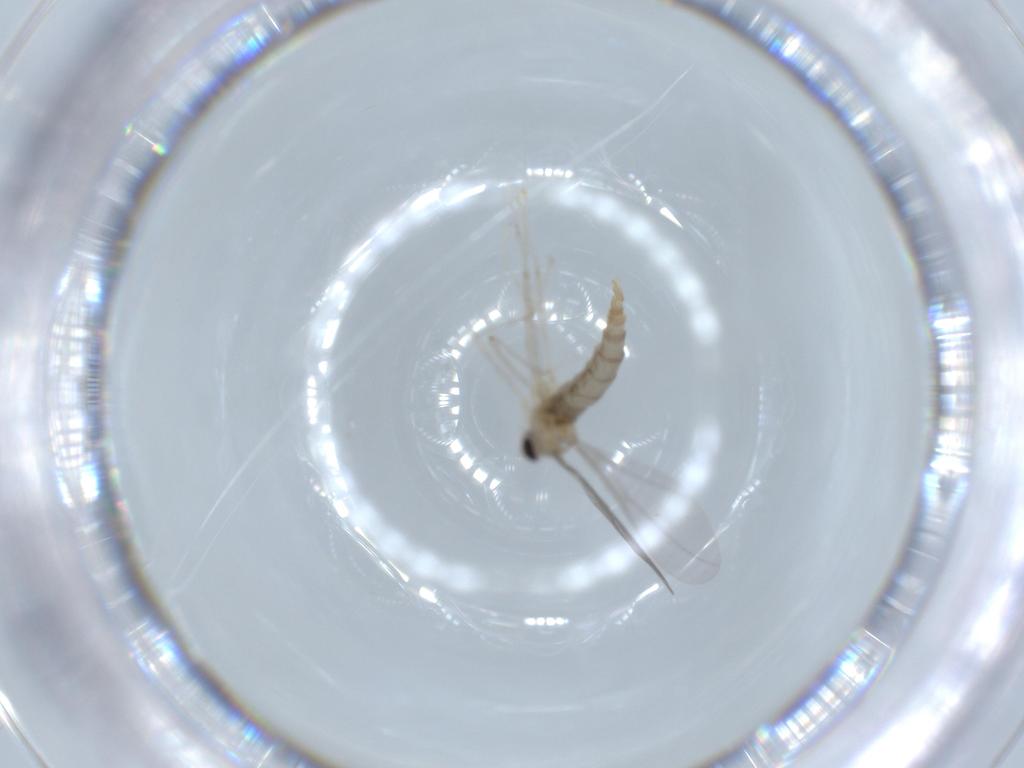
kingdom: Animalia
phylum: Arthropoda
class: Insecta
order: Diptera
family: Cecidomyiidae
